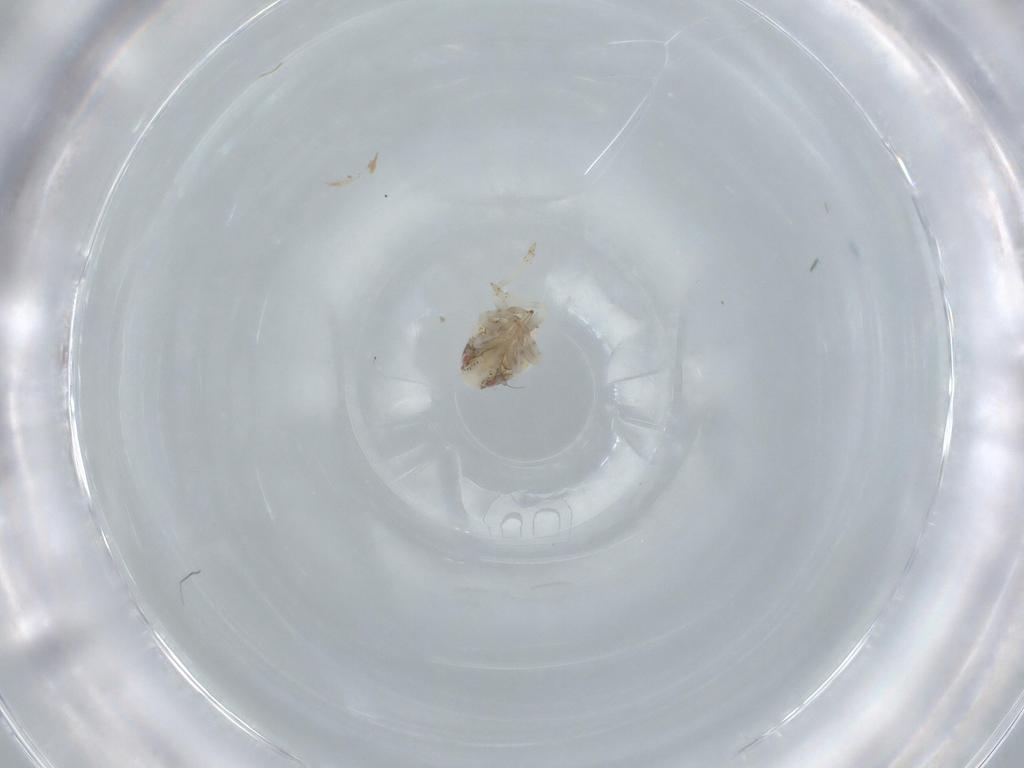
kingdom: Animalia
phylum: Arthropoda
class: Insecta
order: Hemiptera
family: Acanaloniidae
